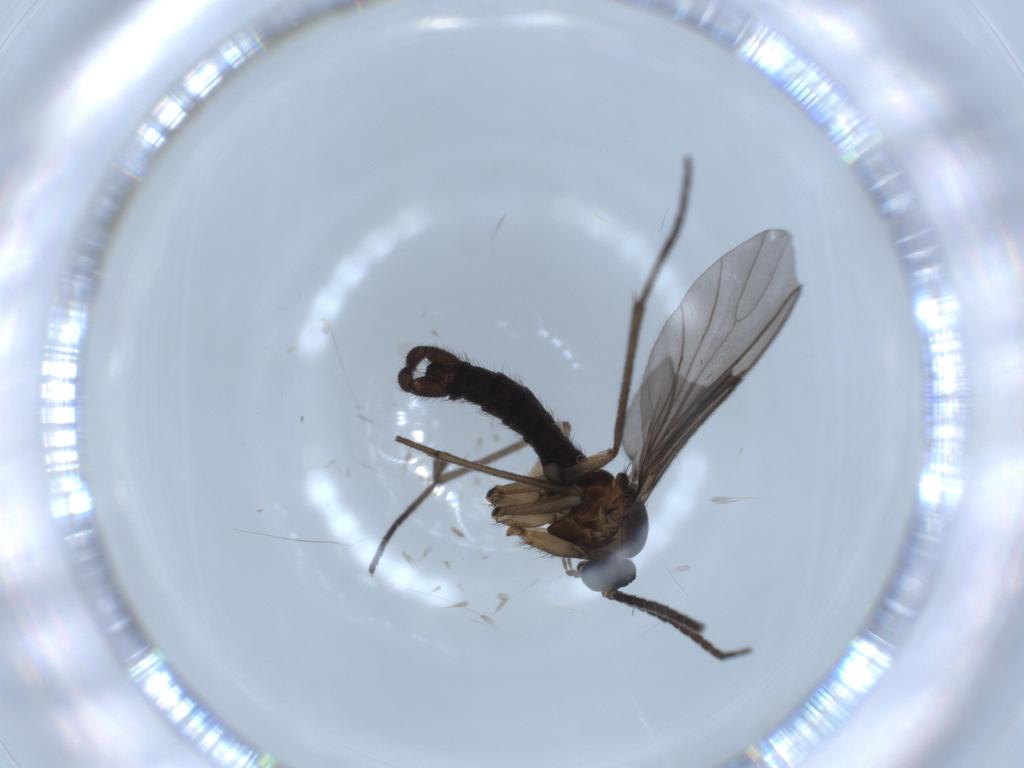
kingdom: Animalia
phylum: Arthropoda
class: Insecta
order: Diptera
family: Sciaridae
